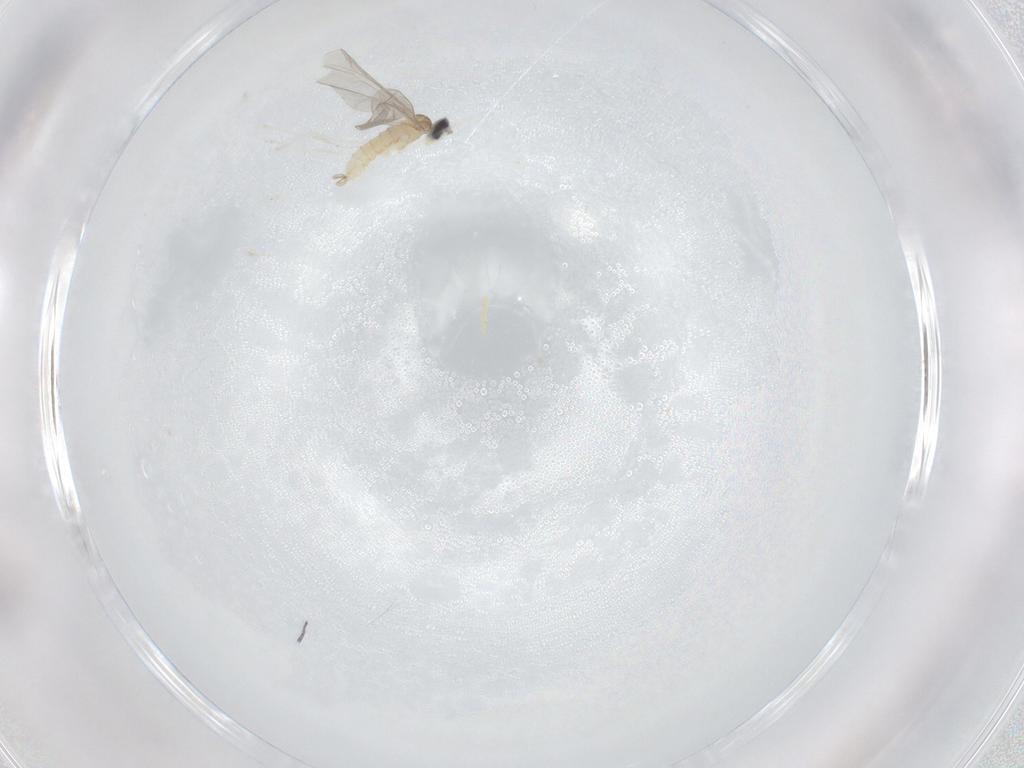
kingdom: Animalia
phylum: Arthropoda
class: Insecta
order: Diptera
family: Cecidomyiidae
